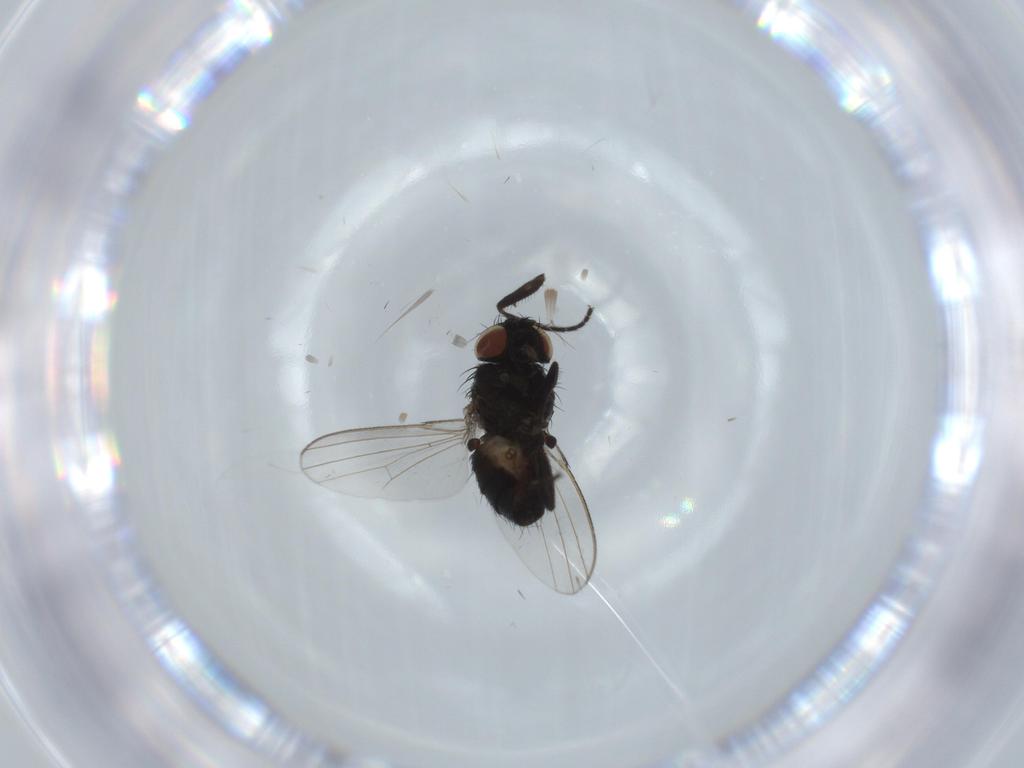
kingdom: Animalia
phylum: Arthropoda
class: Insecta
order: Diptera
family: Milichiidae
